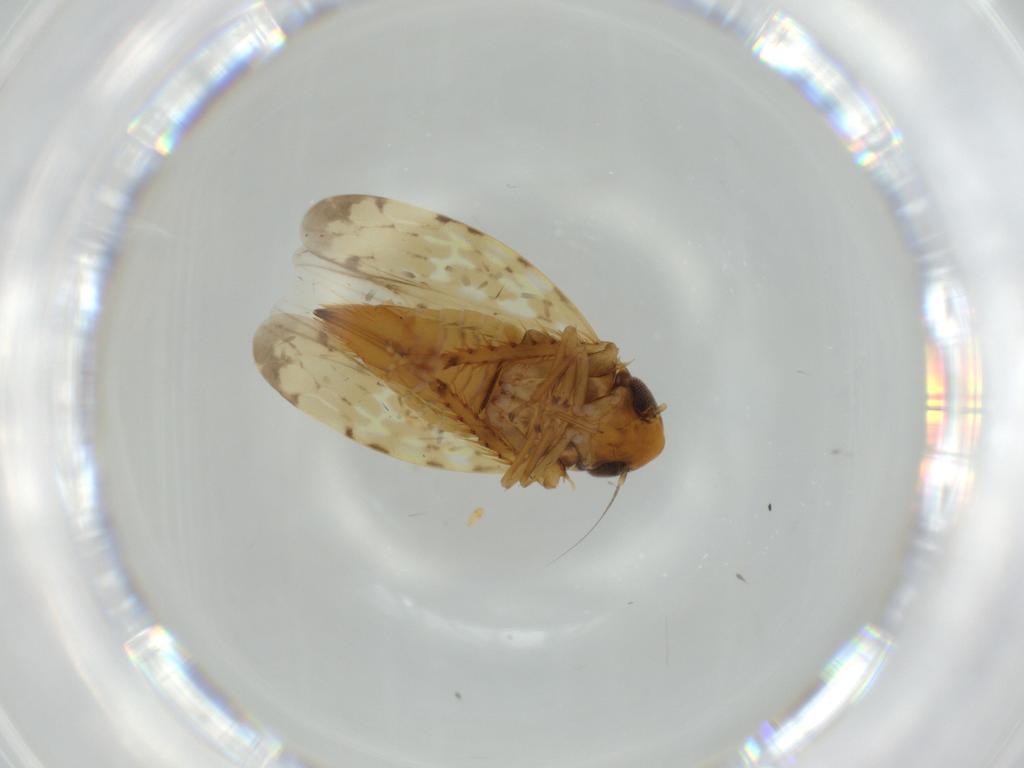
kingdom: Animalia
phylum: Arthropoda
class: Insecta
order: Hemiptera
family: Cicadellidae
